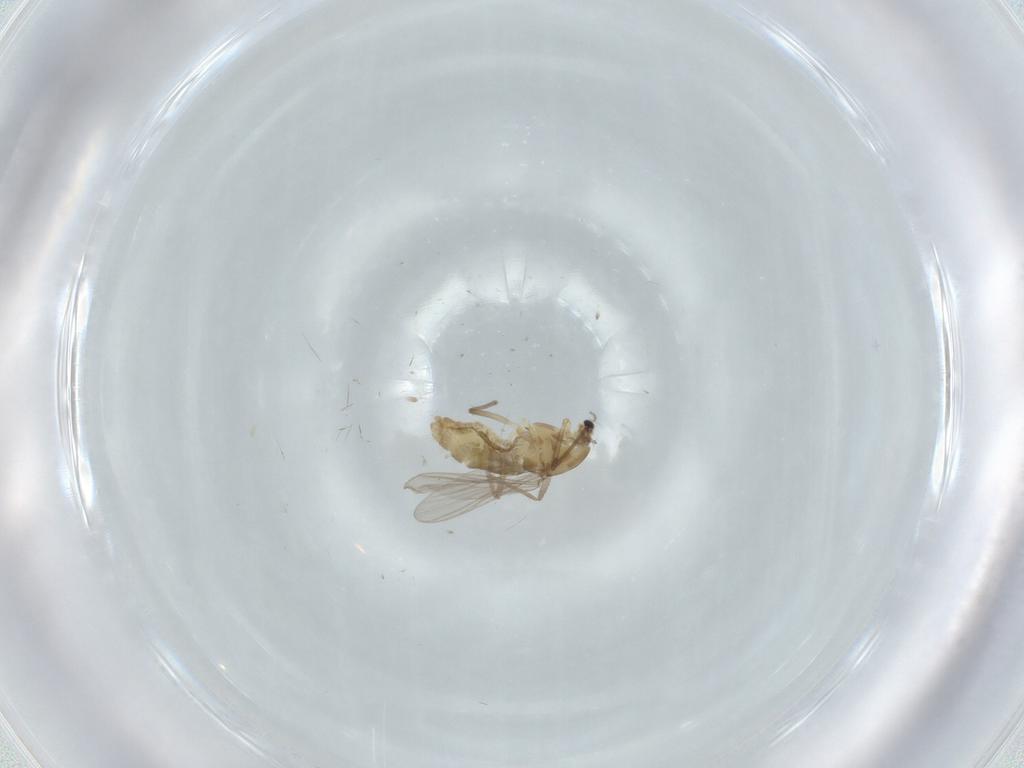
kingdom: Animalia
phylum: Arthropoda
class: Insecta
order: Diptera
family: Chironomidae
